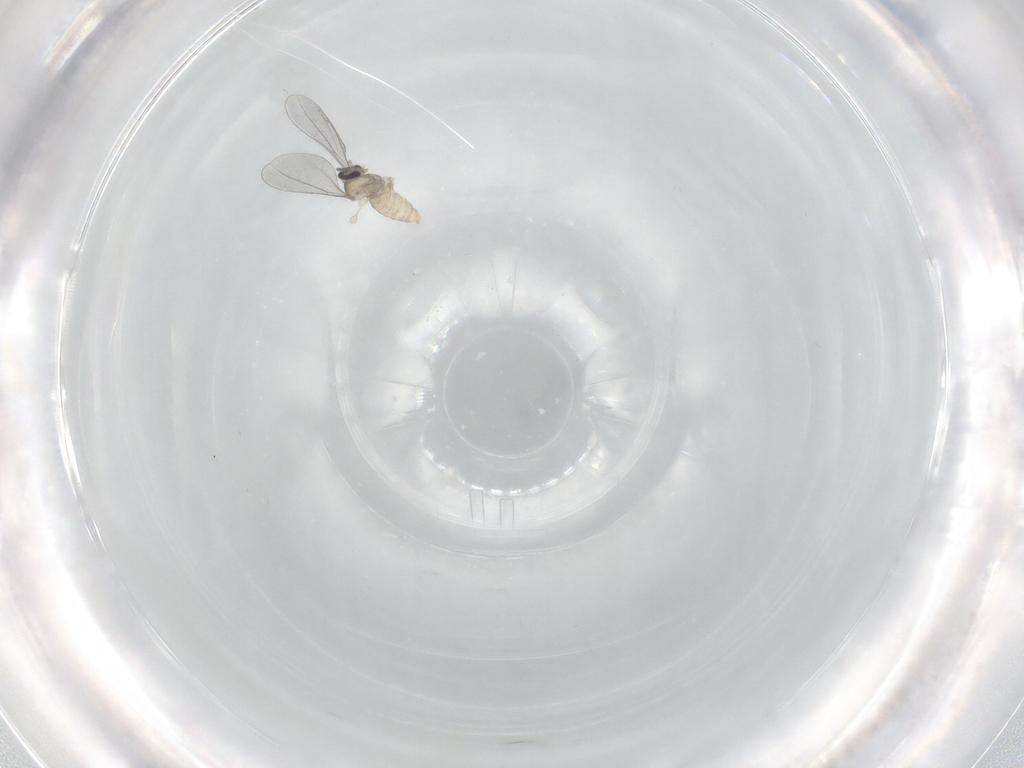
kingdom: Animalia
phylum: Arthropoda
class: Insecta
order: Diptera
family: Cecidomyiidae
